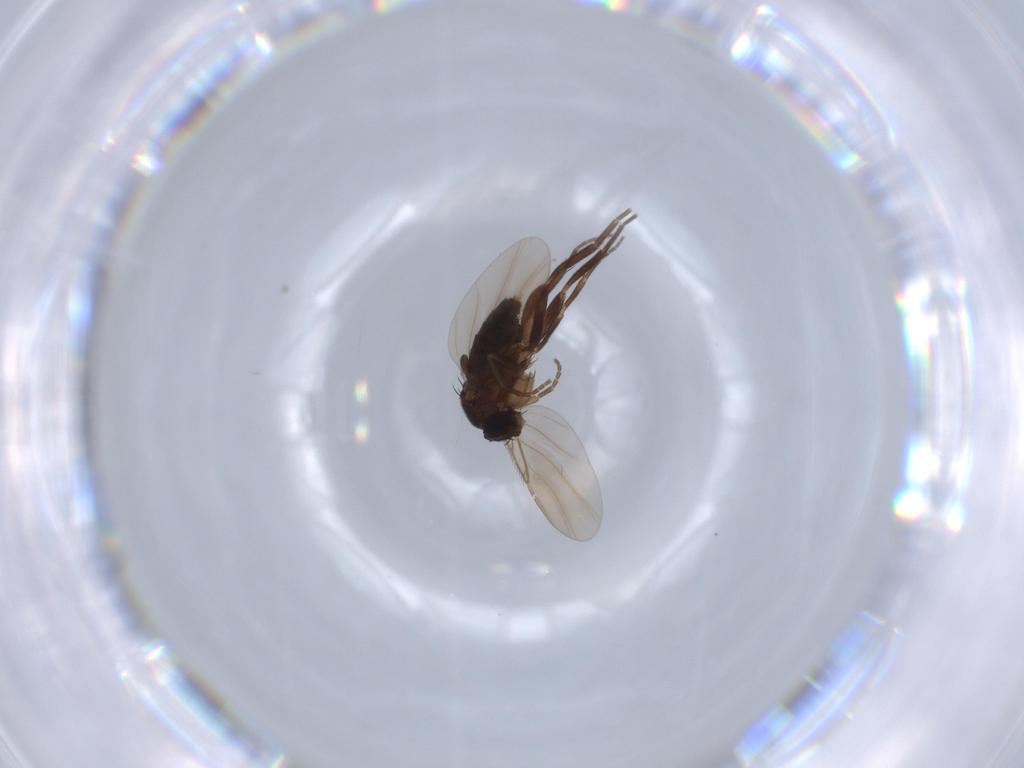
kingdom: Animalia
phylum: Arthropoda
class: Insecta
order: Diptera
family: Phoridae
